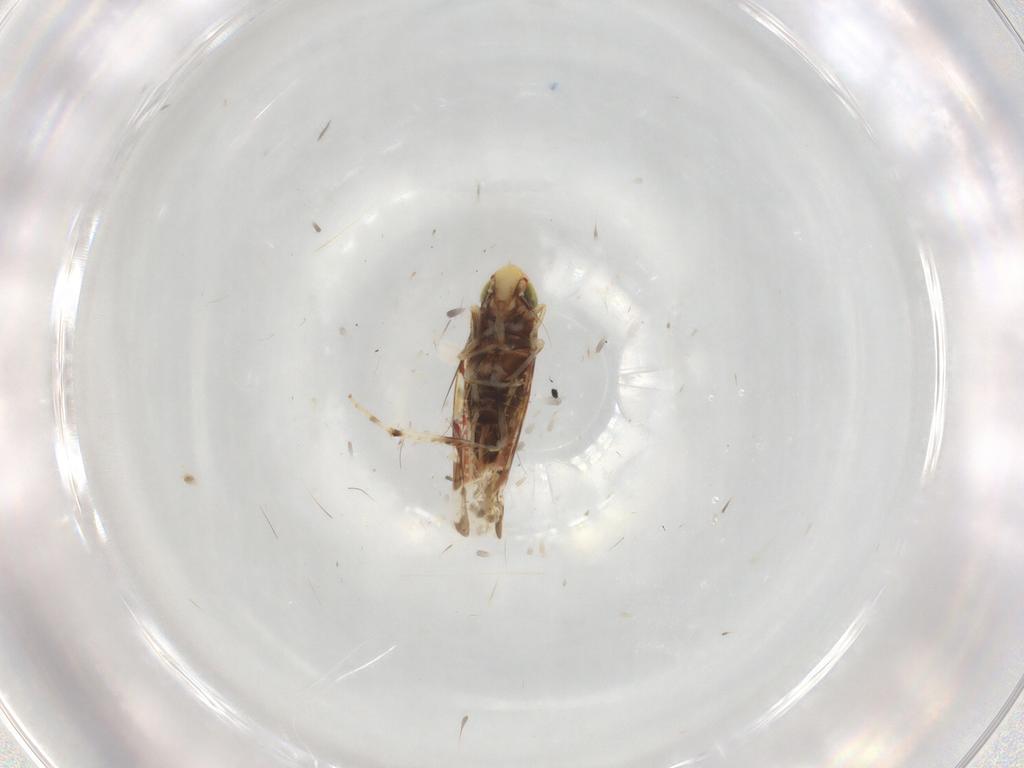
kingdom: Animalia
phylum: Arthropoda
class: Insecta
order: Hemiptera
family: Cicadellidae
